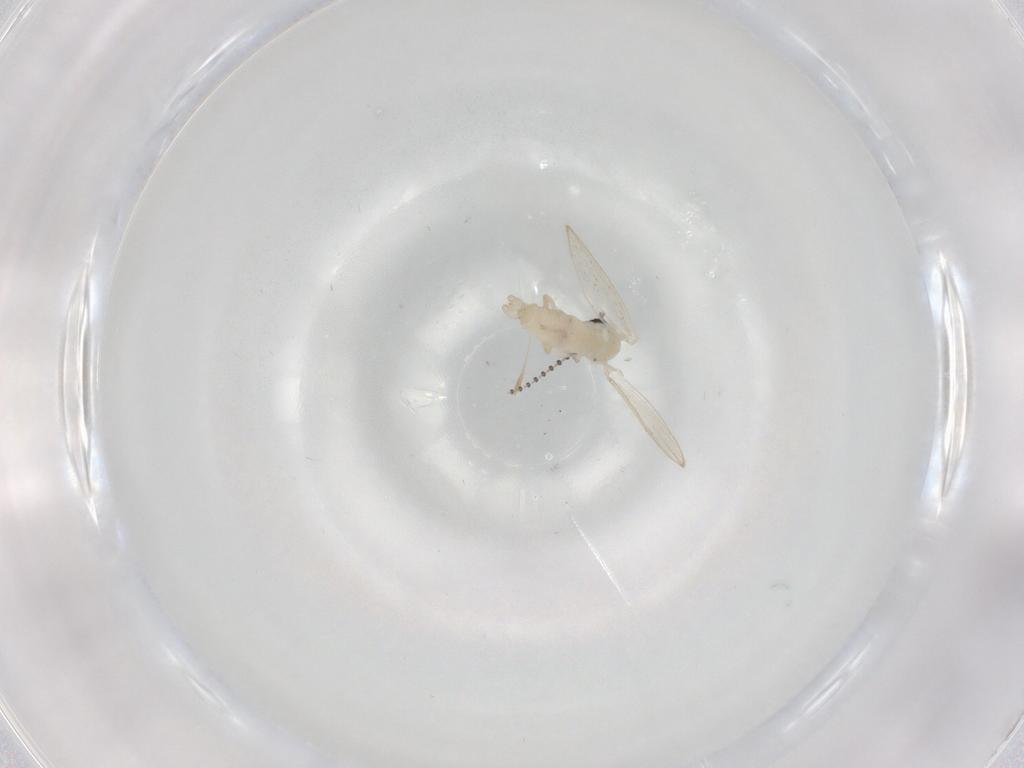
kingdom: Animalia
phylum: Arthropoda
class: Insecta
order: Diptera
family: Psychodidae
